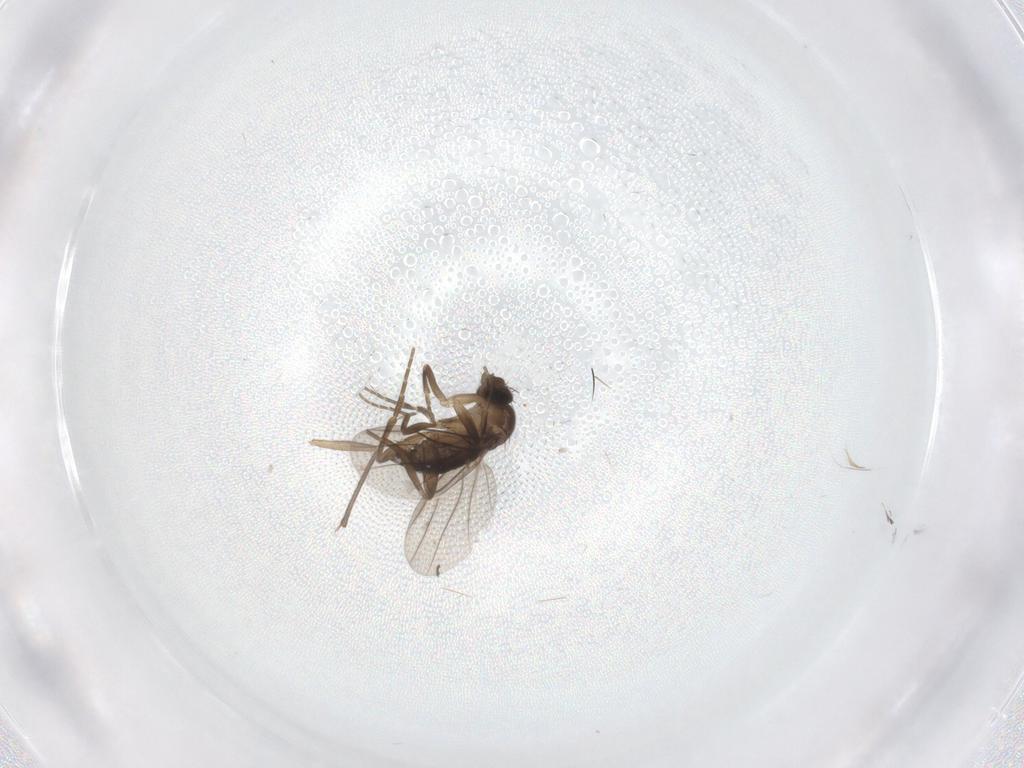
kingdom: Animalia
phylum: Arthropoda
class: Insecta
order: Diptera
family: Sciaridae
